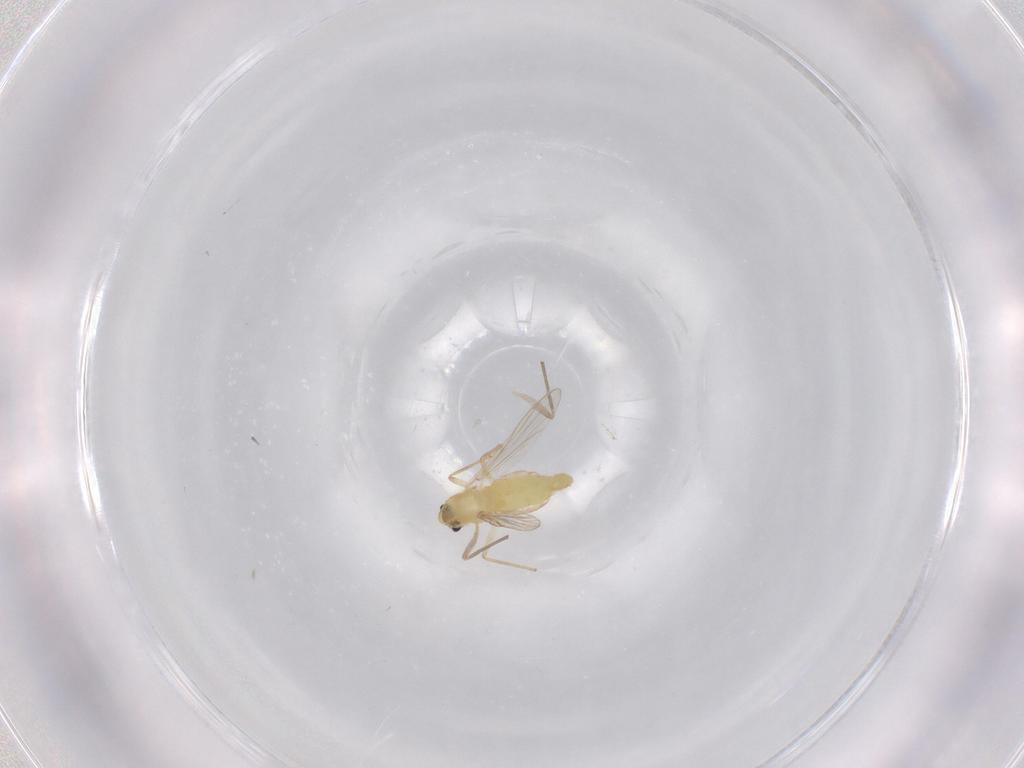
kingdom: Animalia
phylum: Arthropoda
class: Insecta
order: Diptera
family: Chironomidae
